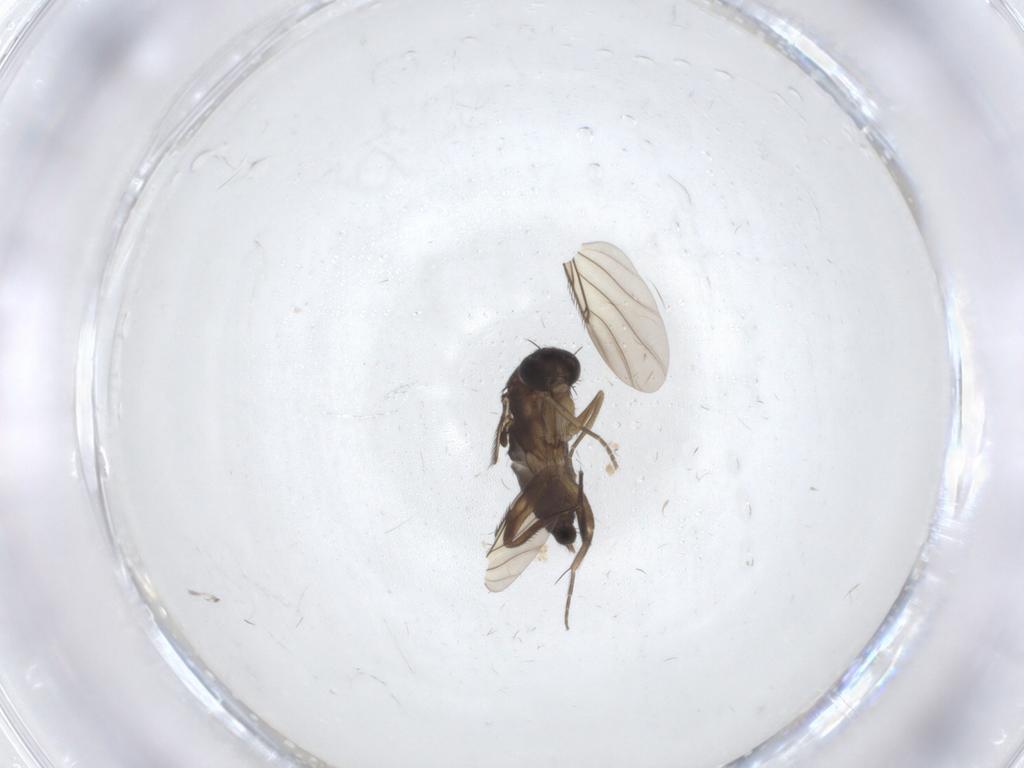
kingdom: Animalia
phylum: Arthropoda
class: Insecta
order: Diptera
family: Phoridae
